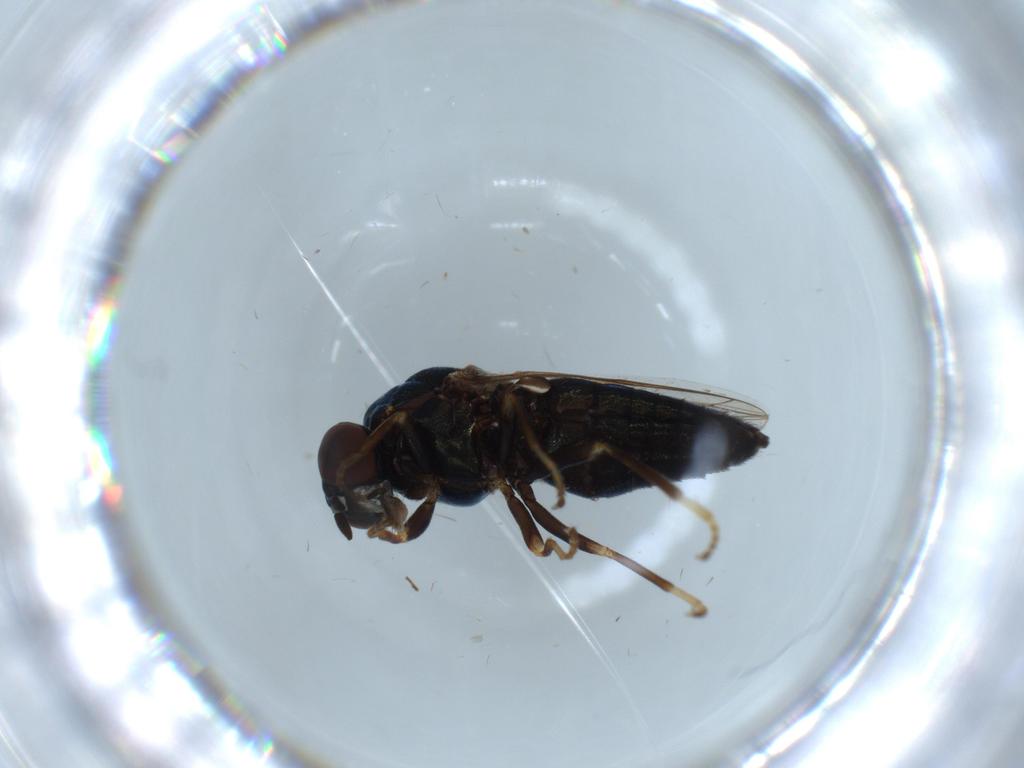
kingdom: Animalia
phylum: Arthropoda
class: Insecta
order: Diptera
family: Scenopinidae
